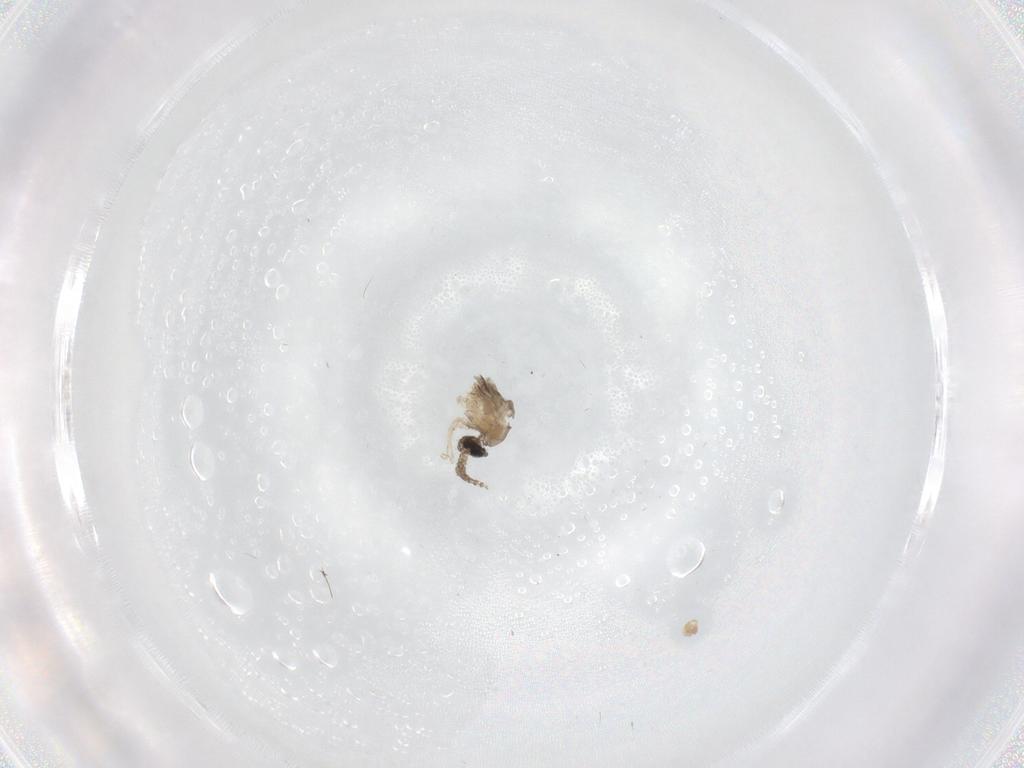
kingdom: Animalia
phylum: Arthropoda
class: Insecta
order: Diptera
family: Cecidomyiidae
